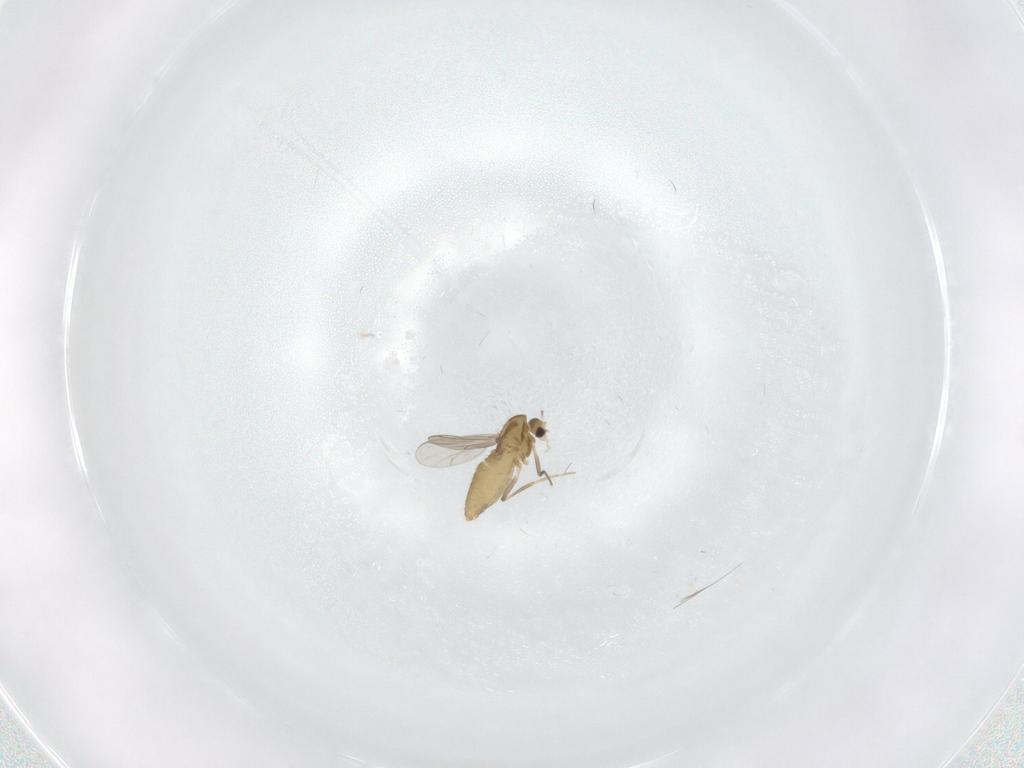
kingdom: Animalia
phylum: Arthropoda
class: Insecta
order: Diptera
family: Chironomidae
